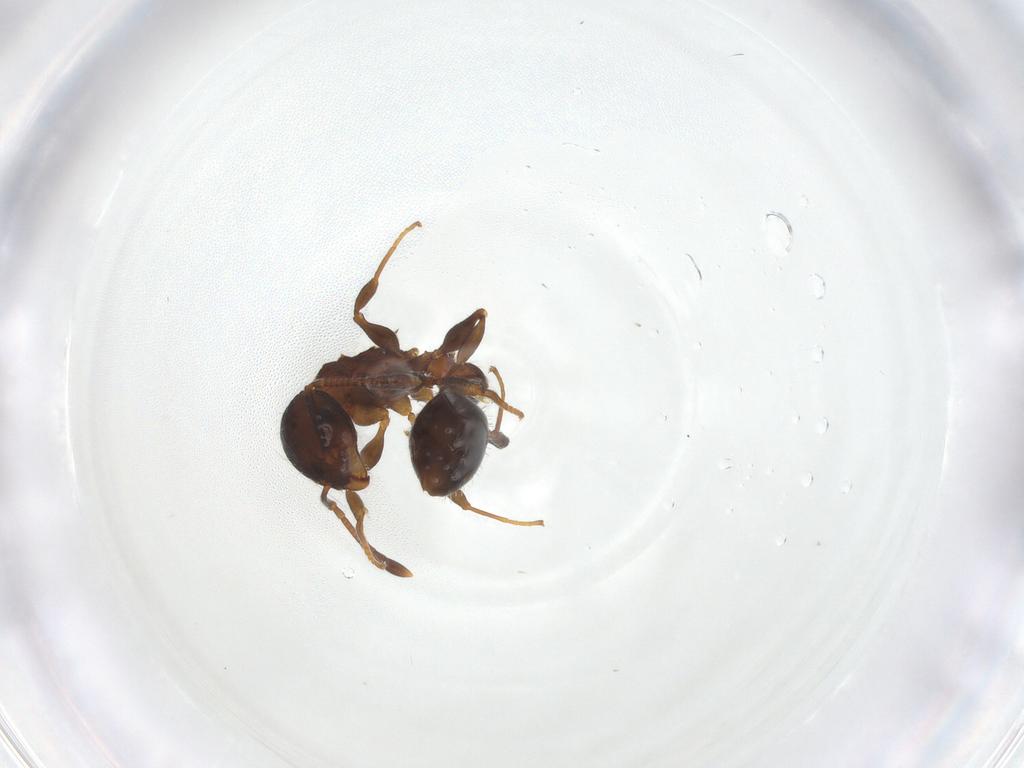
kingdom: Animalia
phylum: Arthropoda
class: Insecta
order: Hymenoptera
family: Formicidae
